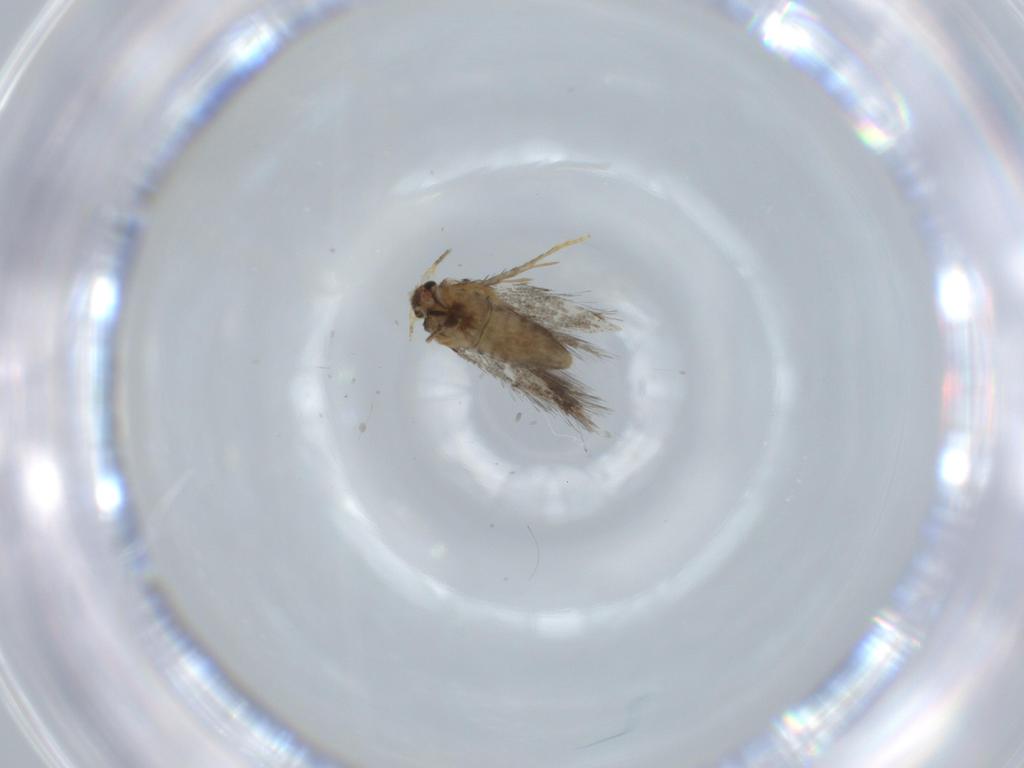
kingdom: Animalia
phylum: Arthropoda
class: Insecta
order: Lepidoptera
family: Nepticulidae
